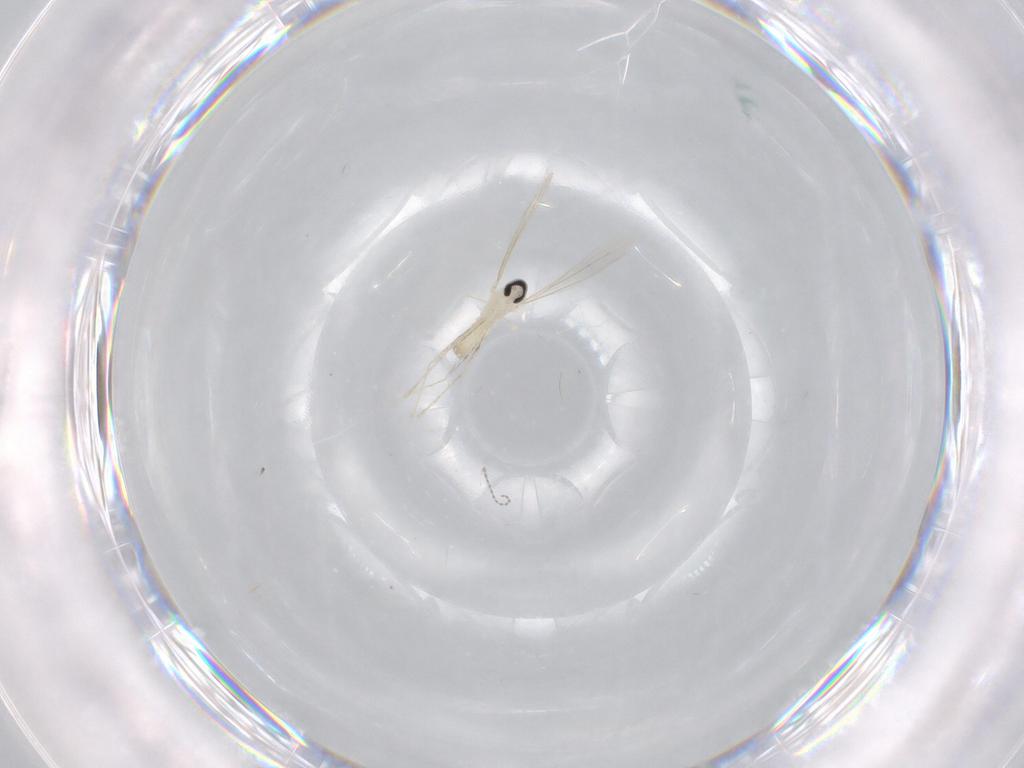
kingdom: Animalia
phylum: Arthropoda
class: Insecta
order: Diptera
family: Cecidomyiidae
